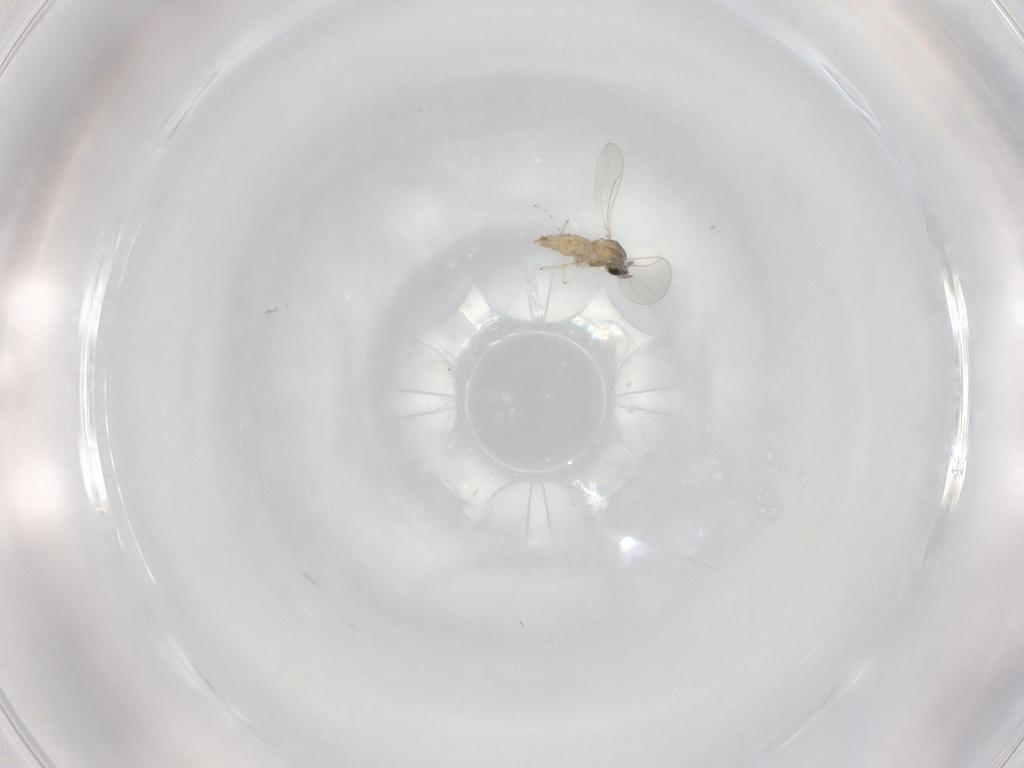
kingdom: Animalia
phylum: Arthropoda
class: Insecta
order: Diptera
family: Cecidomyiidae
